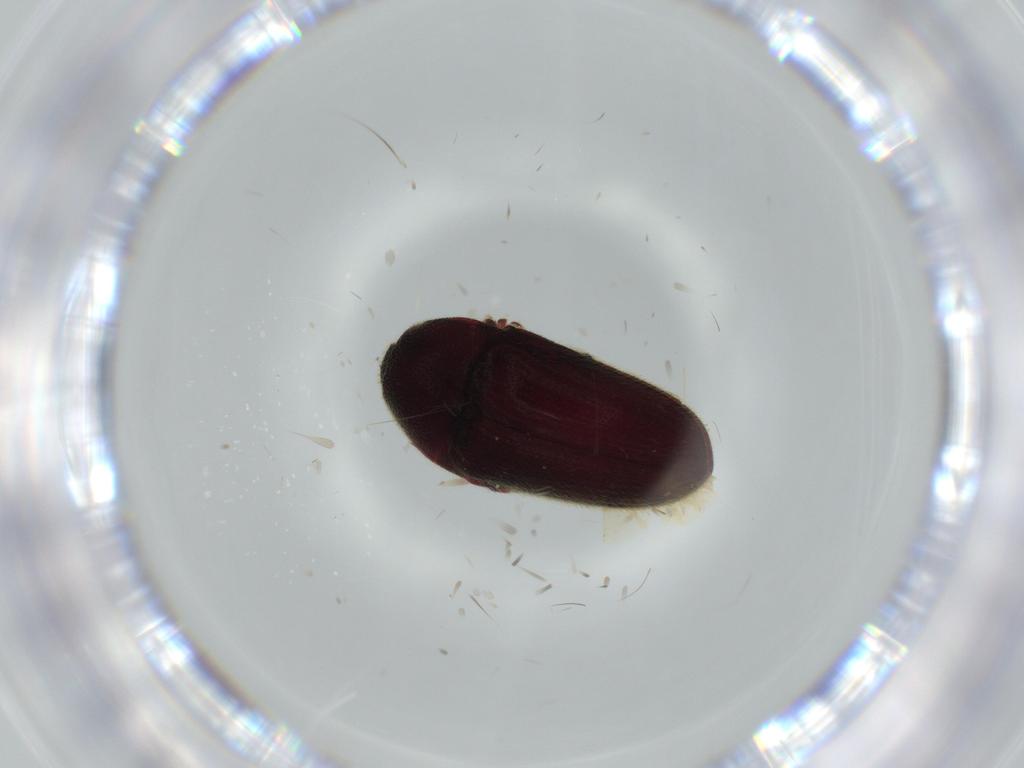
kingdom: Animalia
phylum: Arthropoda
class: Insecta
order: Coleoptera
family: Throscidae
